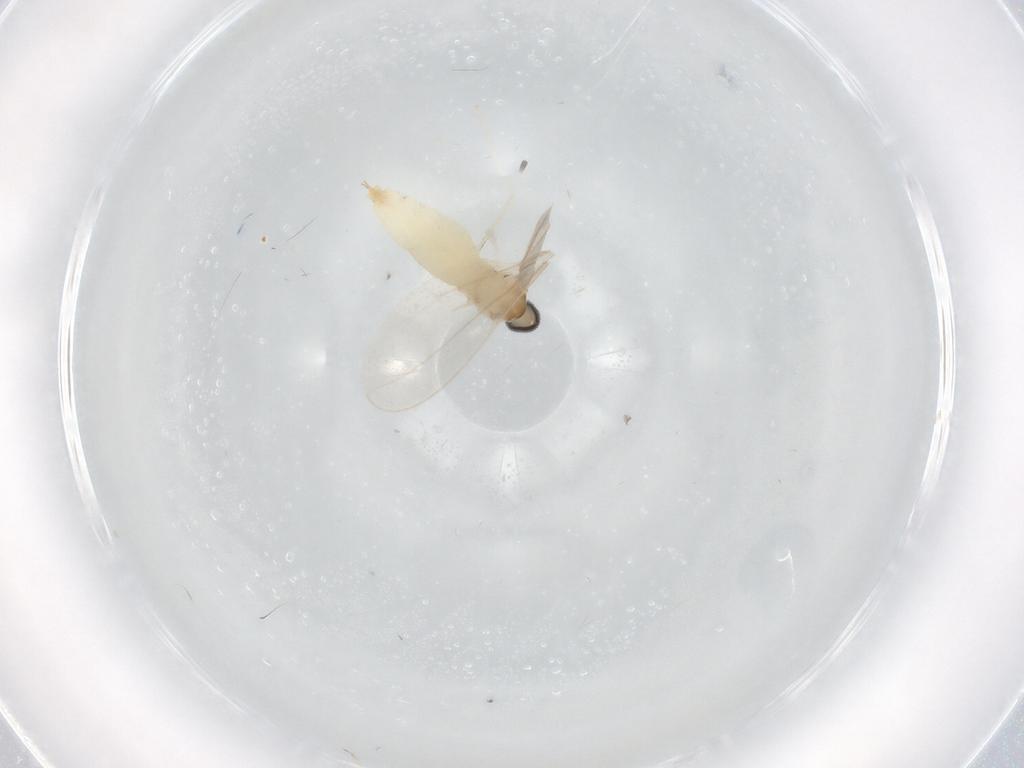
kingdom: Animalia
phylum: Arthropoda
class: Insecta
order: Diptera
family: Cecidomyiidae
